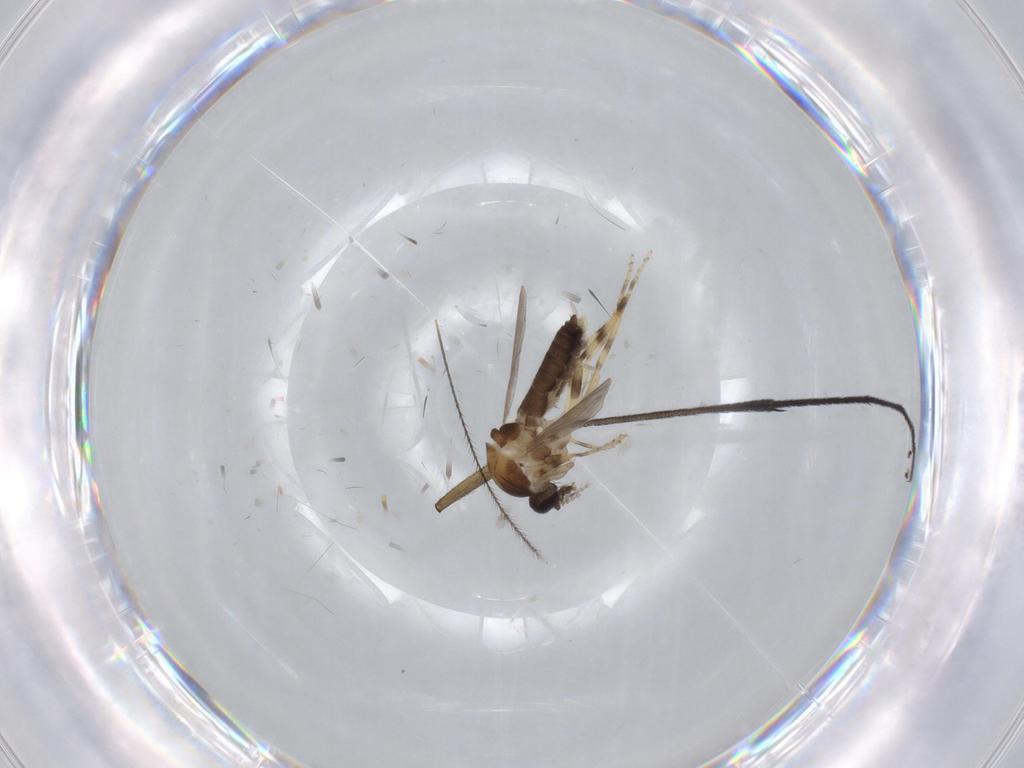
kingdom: Animalia
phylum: Arthropoda
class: Insecta
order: Diptera
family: Ceratopogonidae
